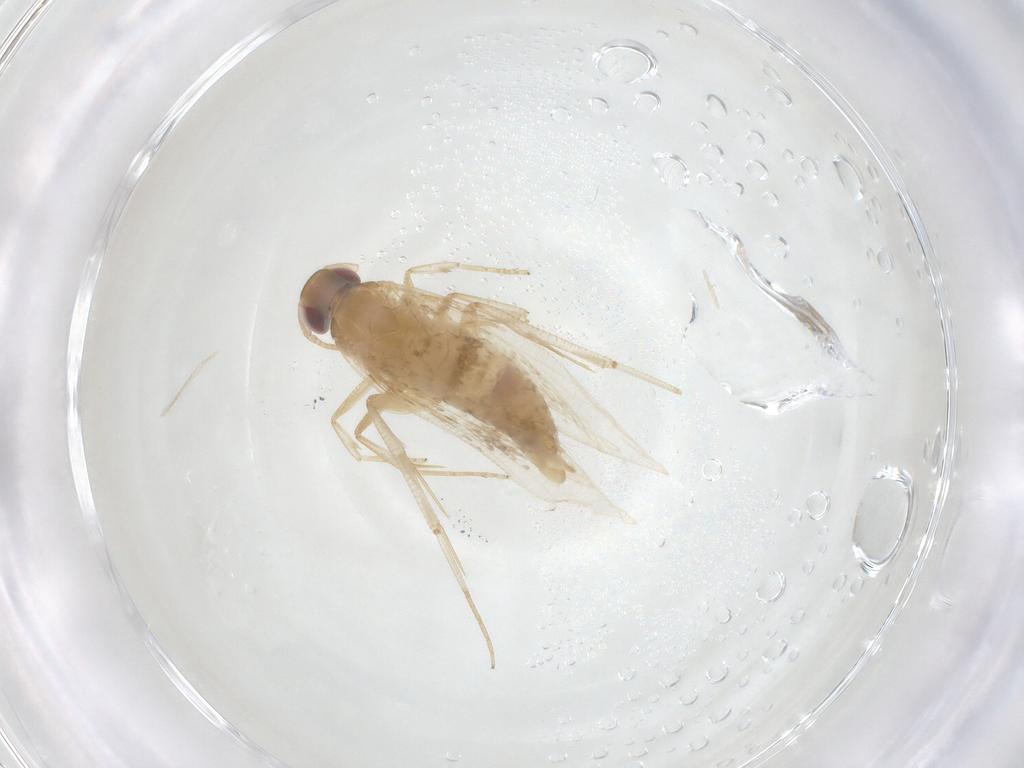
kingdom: Animalia
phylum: Arthropoda
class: Insecta
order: Lepidoptera
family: Cosmopterigidae
